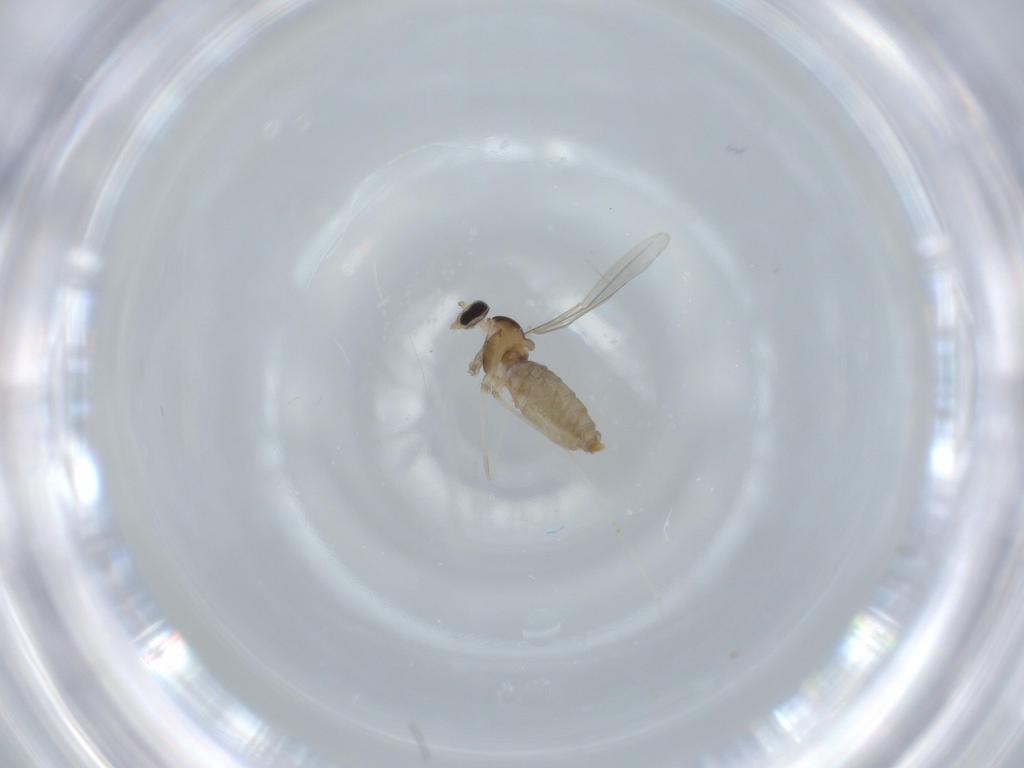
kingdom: Animalia
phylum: Arthropoda
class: Insecta
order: Diptera
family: Cecidomyiidae
